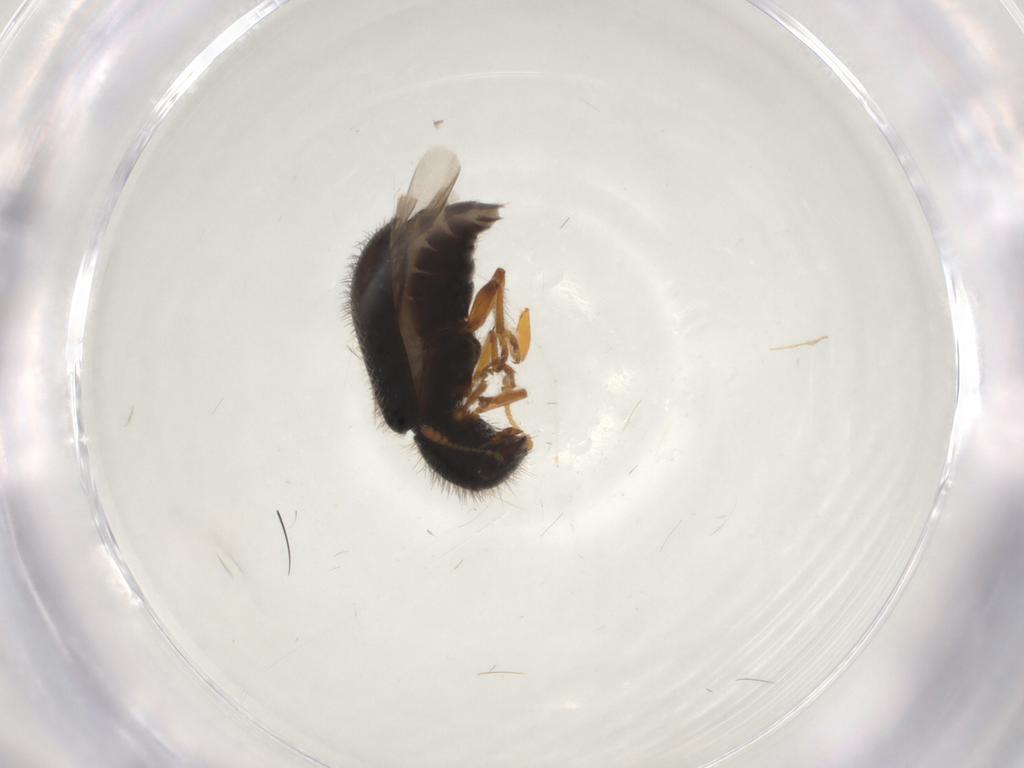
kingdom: Animalia
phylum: Arthropoda
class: Insecta
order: Coleoptera
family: Cleridae
